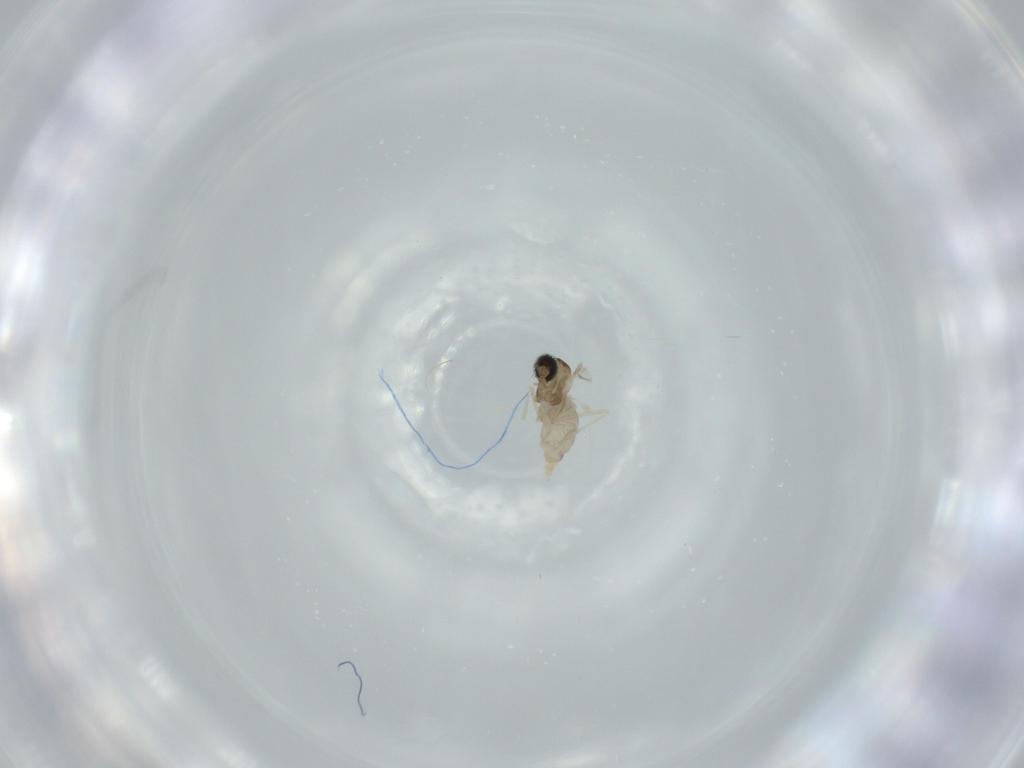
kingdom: Animalia
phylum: Arthropoda
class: Insecta
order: Diptera
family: Cecidomyiidae
